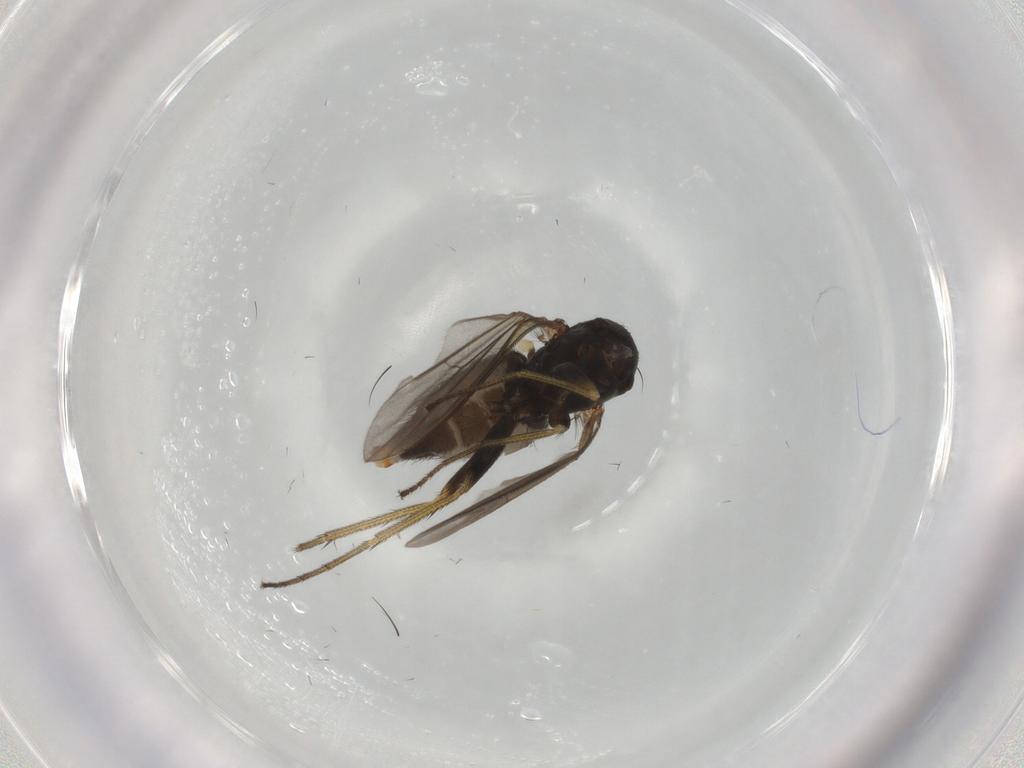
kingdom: Animalia
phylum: Arthropoda
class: Insecta
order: Diptera
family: Dolichopodidae
